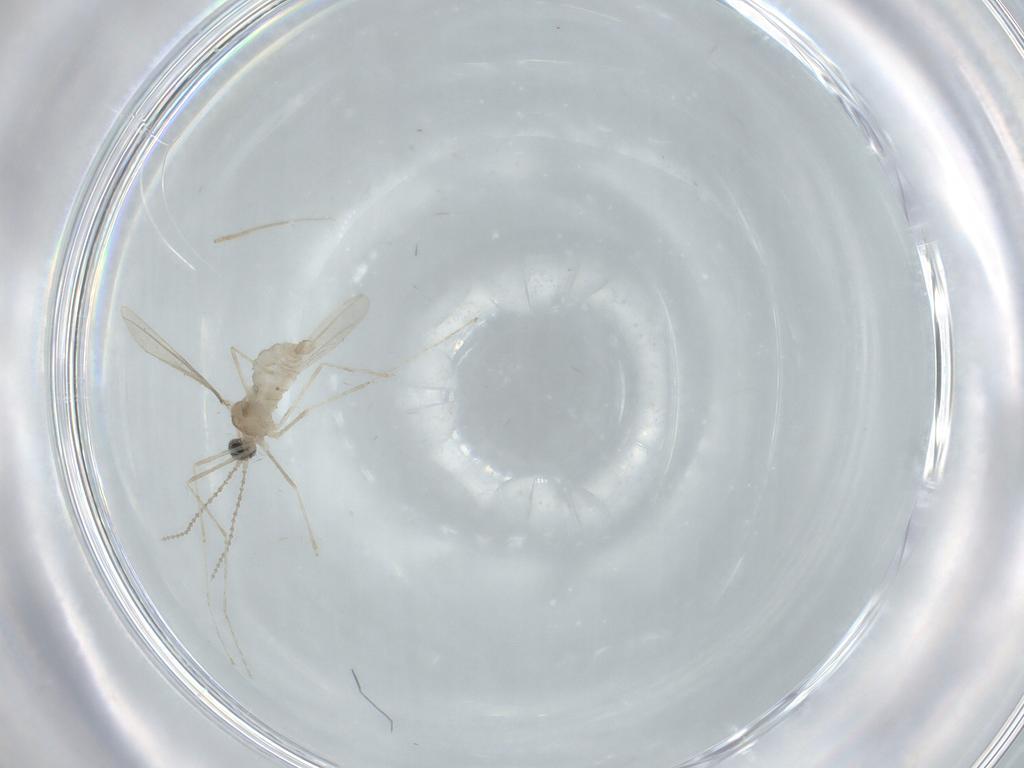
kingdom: Animalia
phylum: Arthropoda
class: Insecta
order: Diptera
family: Cecidomyiidae
